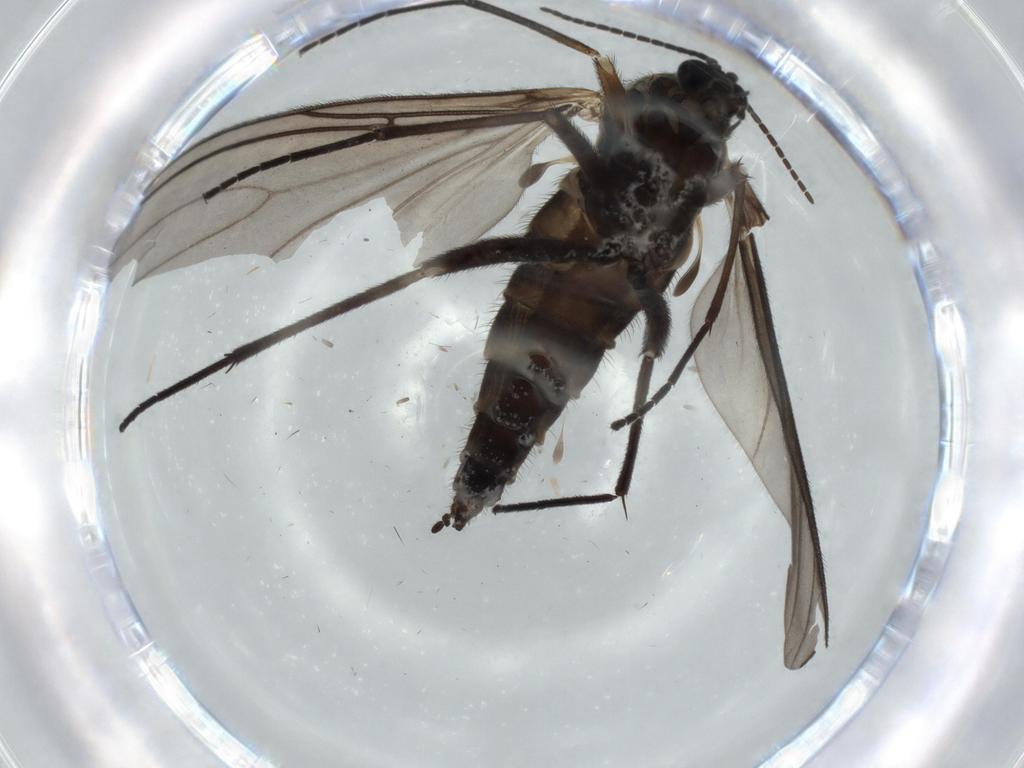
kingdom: Animalia
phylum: Arthropoda
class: Insecta
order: Diptera
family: Sciaridae
